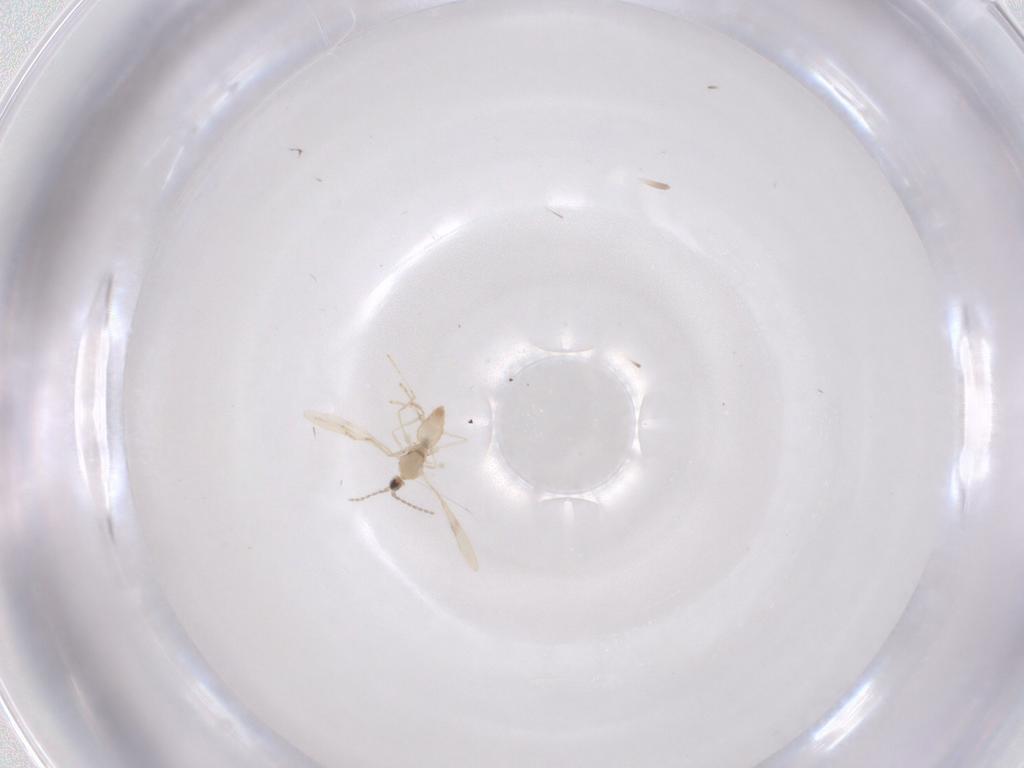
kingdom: Animalia
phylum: Arthropoda
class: Insecta
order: Diptera
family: Cecidomyiidae
